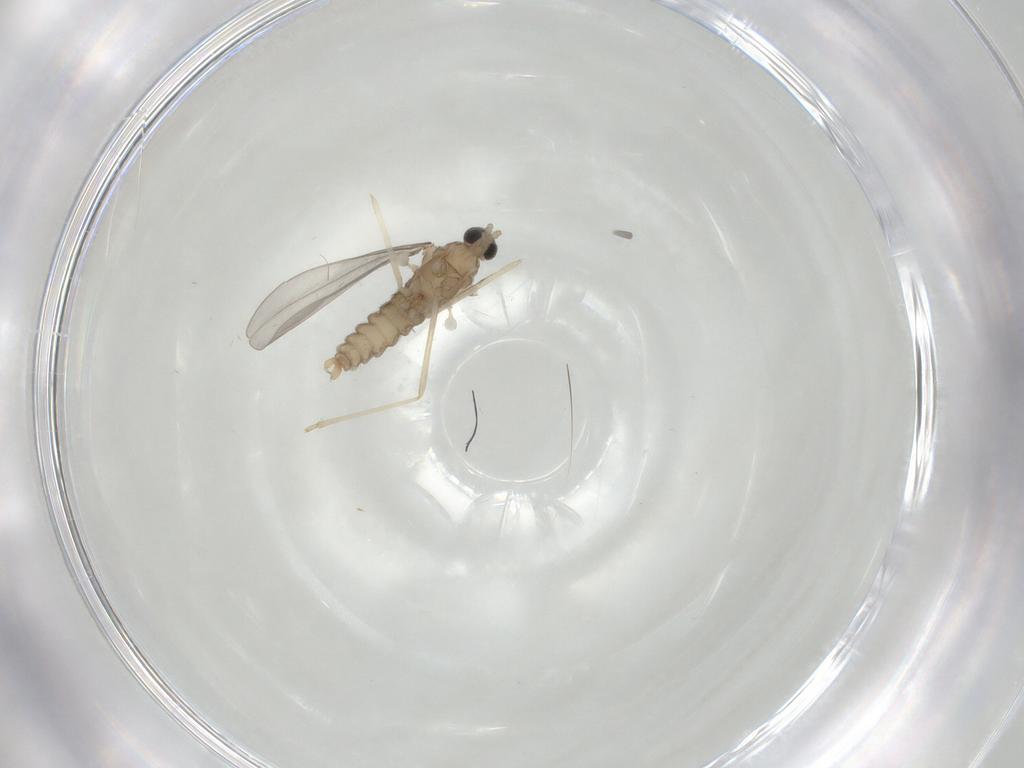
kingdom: Animalia
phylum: Arthropoda
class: Insecta
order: Diptera
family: Cecidomyiidae
